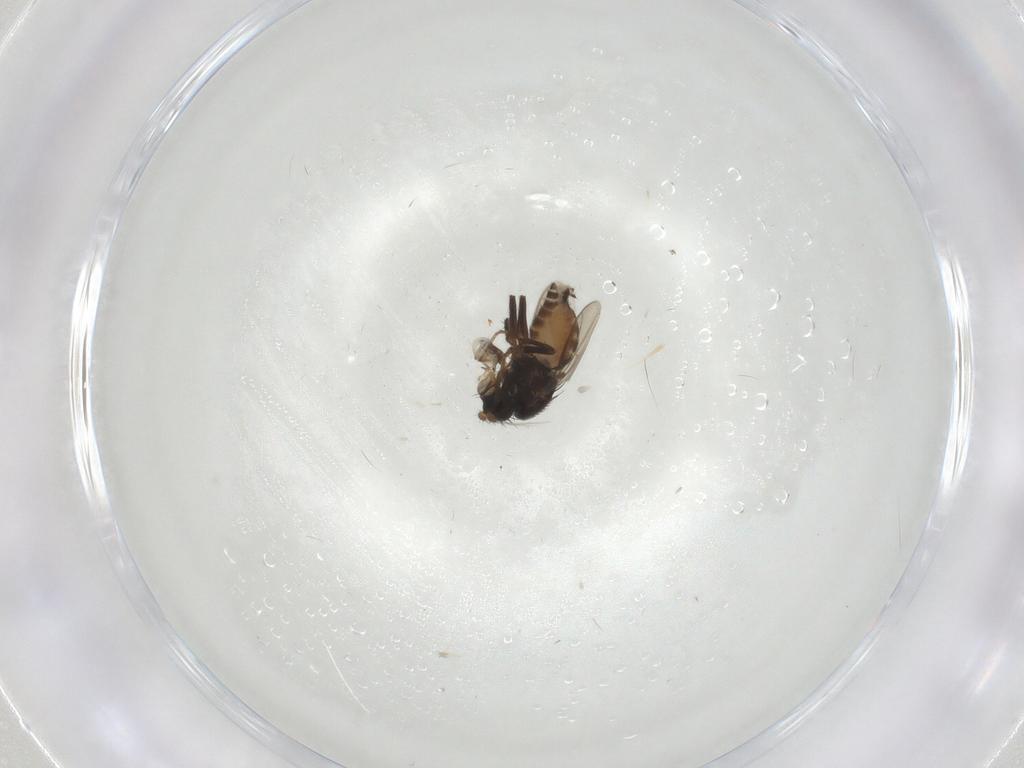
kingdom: Animalia
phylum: Arthropoda
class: Insecta
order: Diptera
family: Sphaeroceridae
